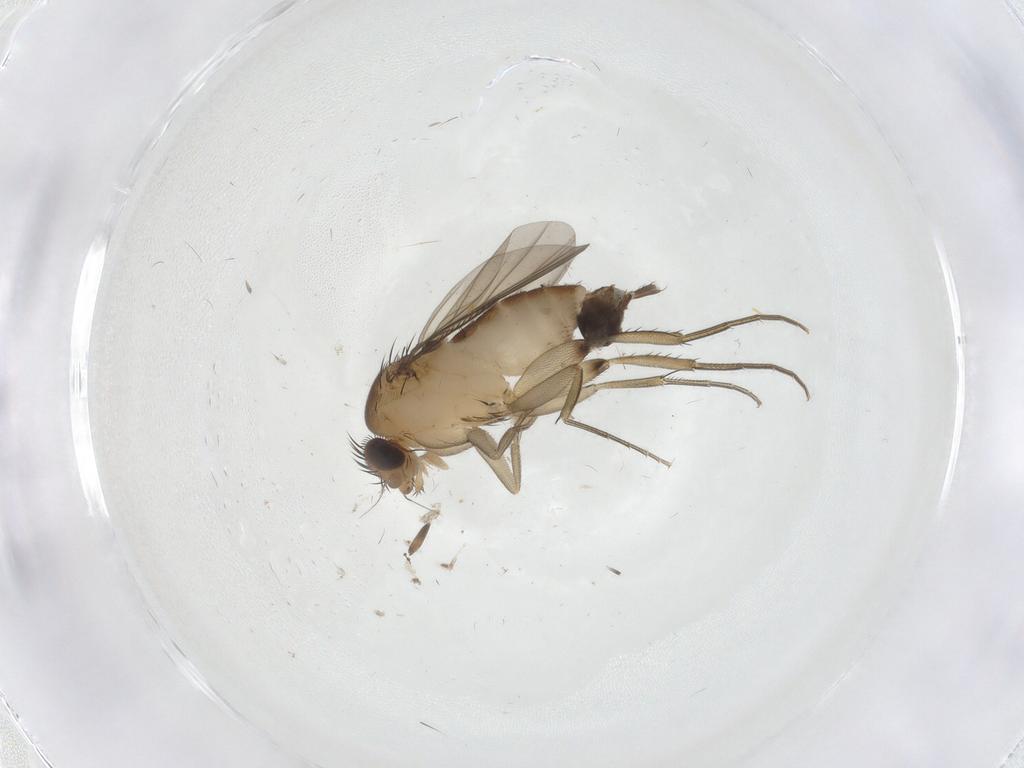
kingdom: Animalia
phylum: Arthropoda
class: Insecta
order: Diptera
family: Phoridae
